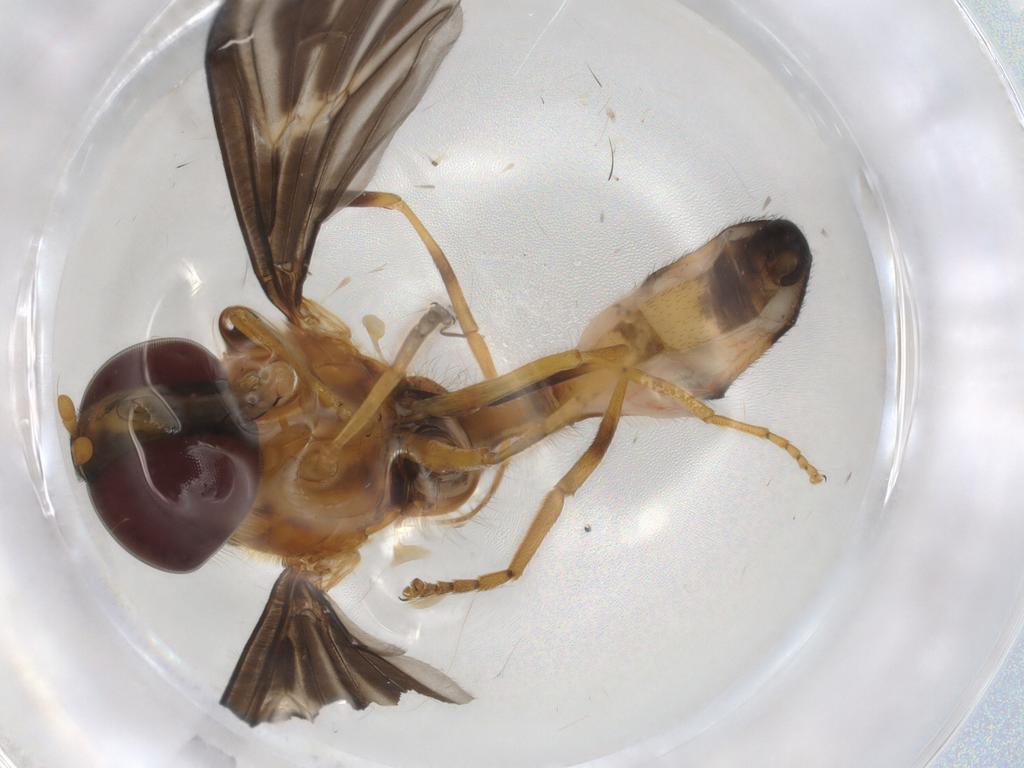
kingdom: Animalia
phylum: Arthropoda
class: Insecta
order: Diptera
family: Syrphidae
